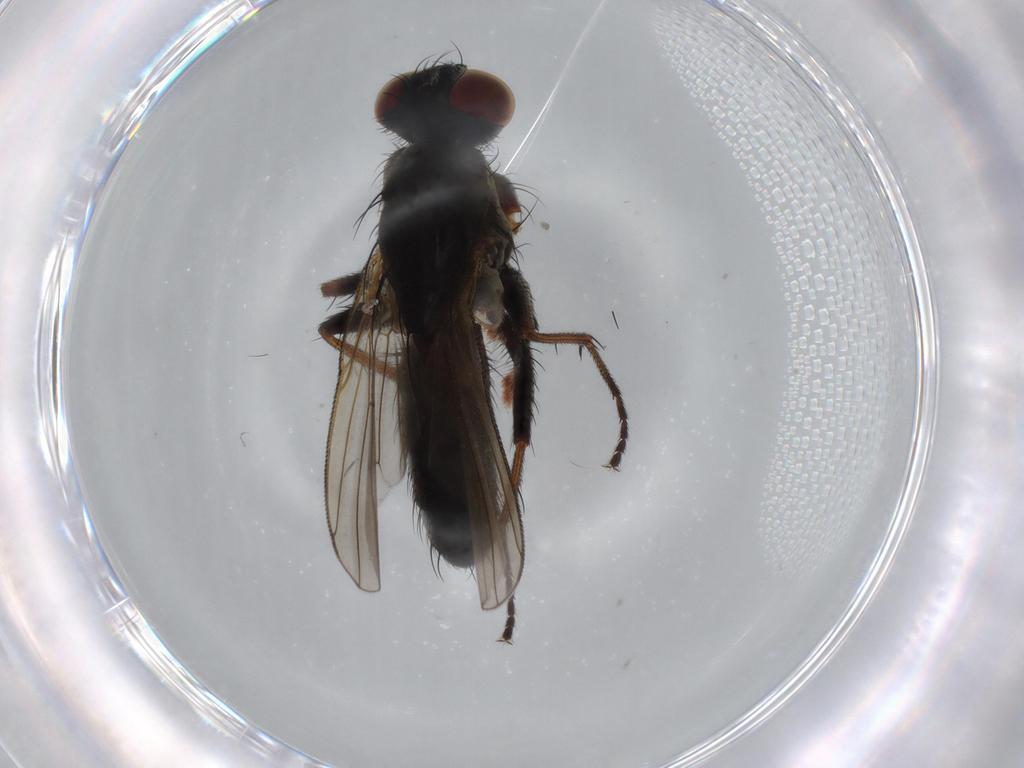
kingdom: Animalia
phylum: Arthropoda
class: Insecta
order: Diptera
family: Muscidae
